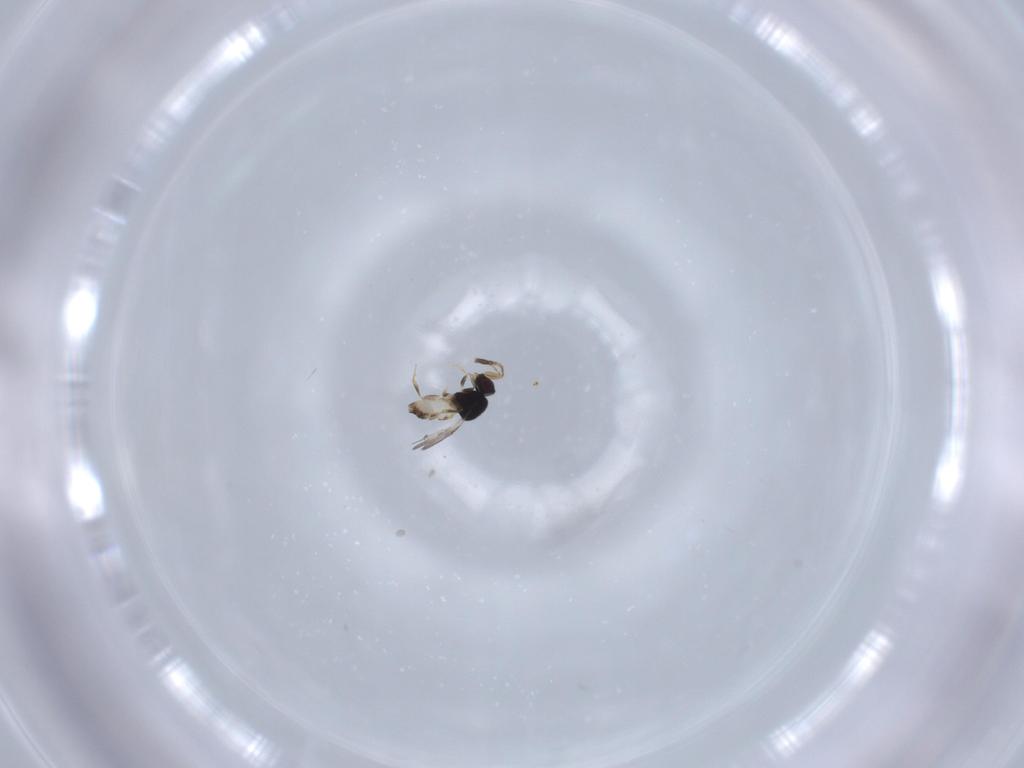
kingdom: Animalia
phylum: Arthropoda
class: Insecta
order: Hymenoptera
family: Ceraphronidae
